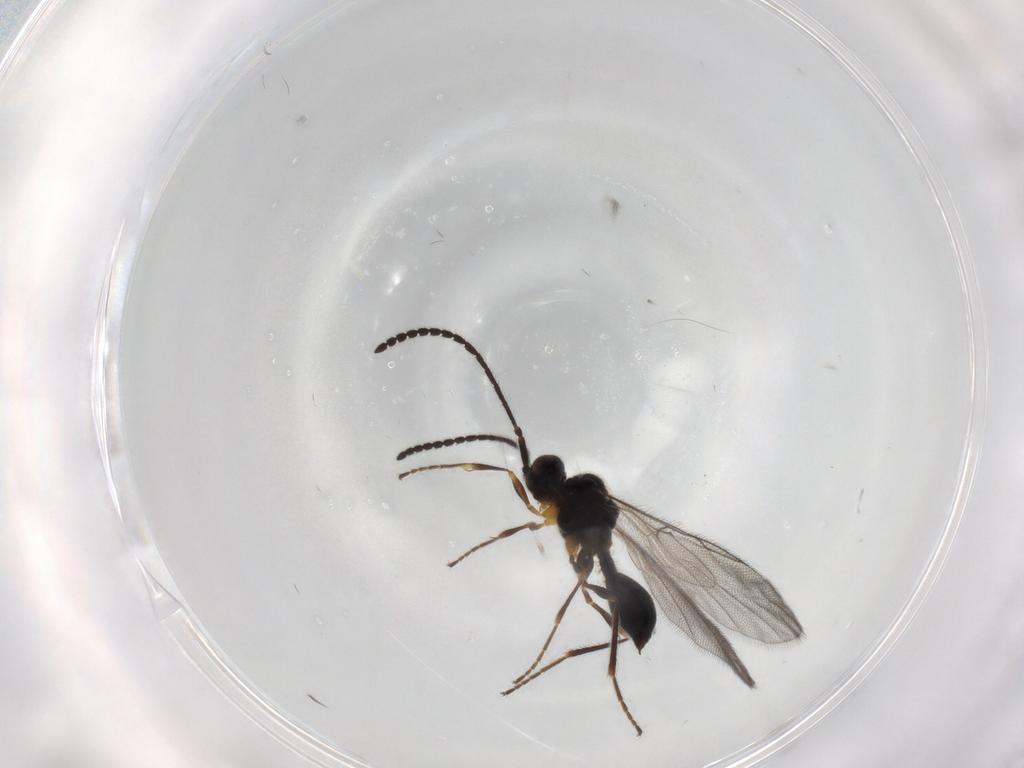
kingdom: Animalia
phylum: Arthropoda
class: Insecta
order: Hymenoptera
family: Diapriidae
